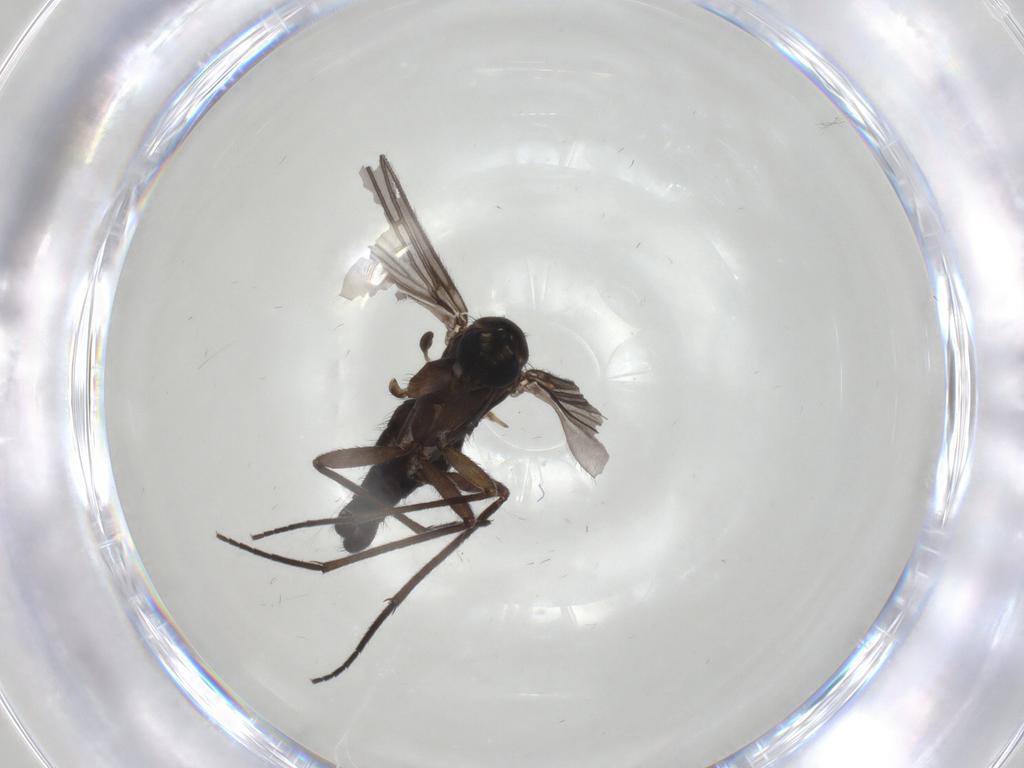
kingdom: Animalia
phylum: Arthropoda
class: Insecta
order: Diptera
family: Sciaridae
